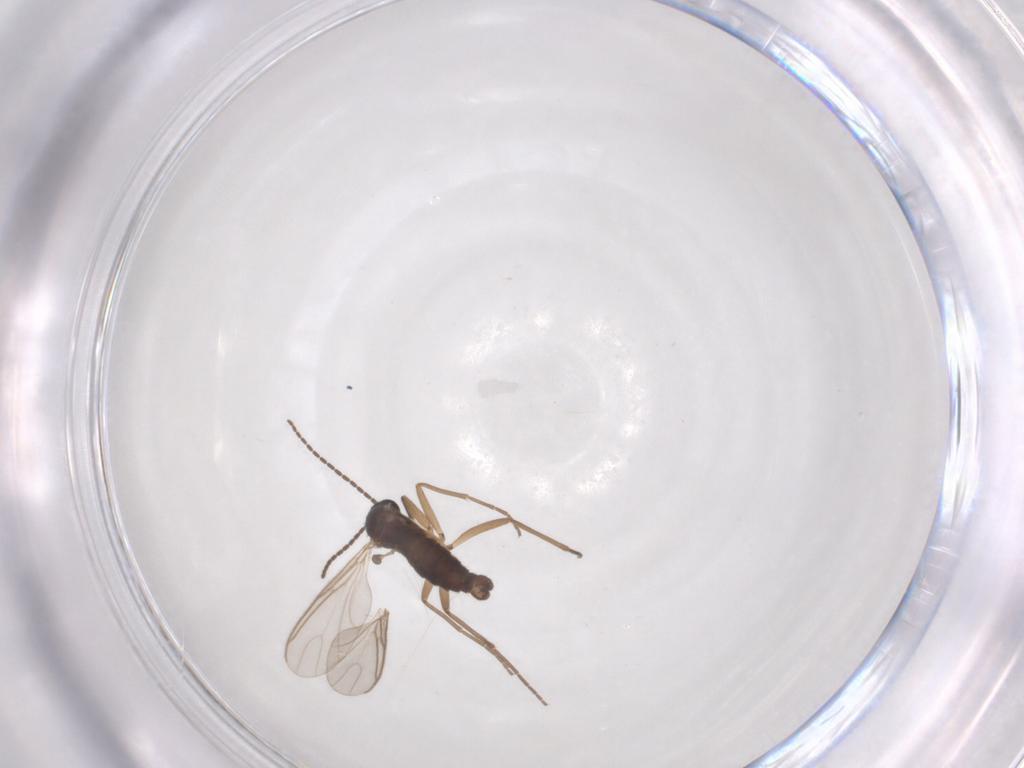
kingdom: Animalia
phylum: Arthropoda
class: Insecta
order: Diptera
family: Sciaridae
